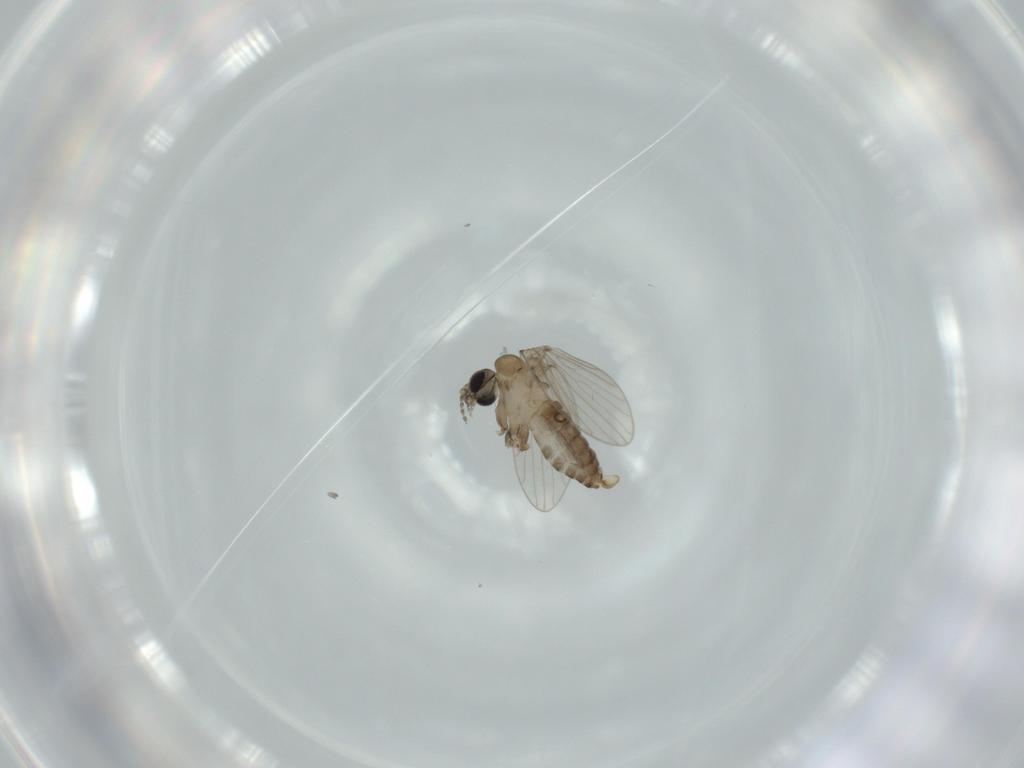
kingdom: Animalia
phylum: Arthropoda
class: Insecta
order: Diptera
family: Psychodidae
